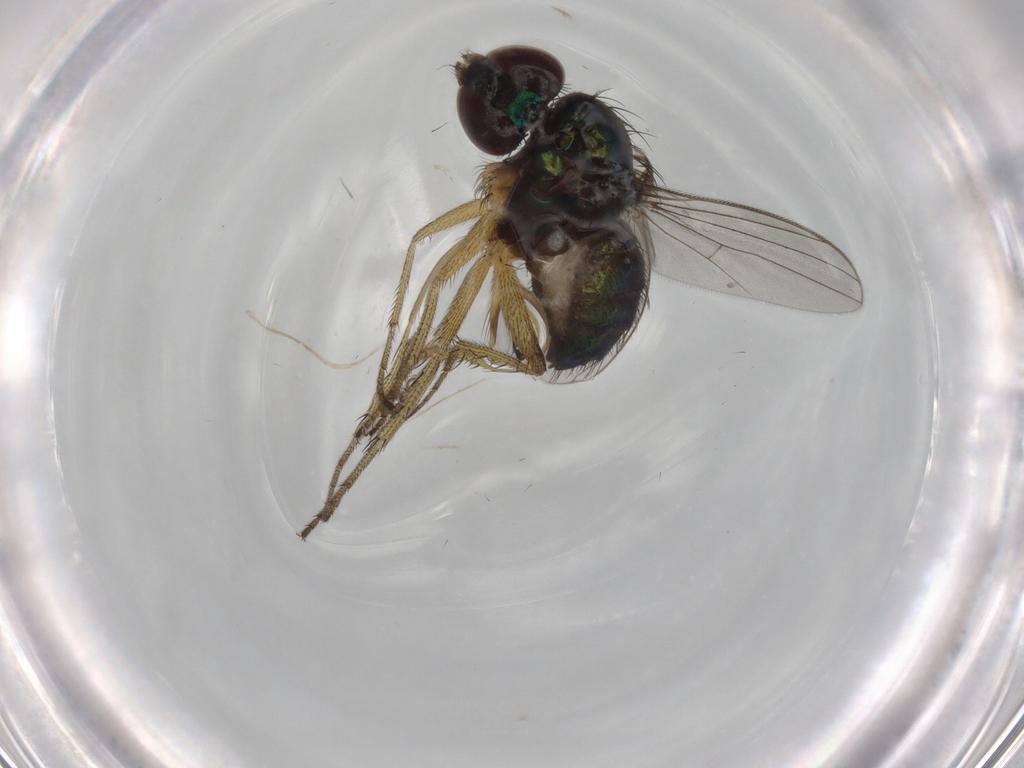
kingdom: Animalia
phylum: Arthropoda
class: Insecta
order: Diptera
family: Dolichopodidae
